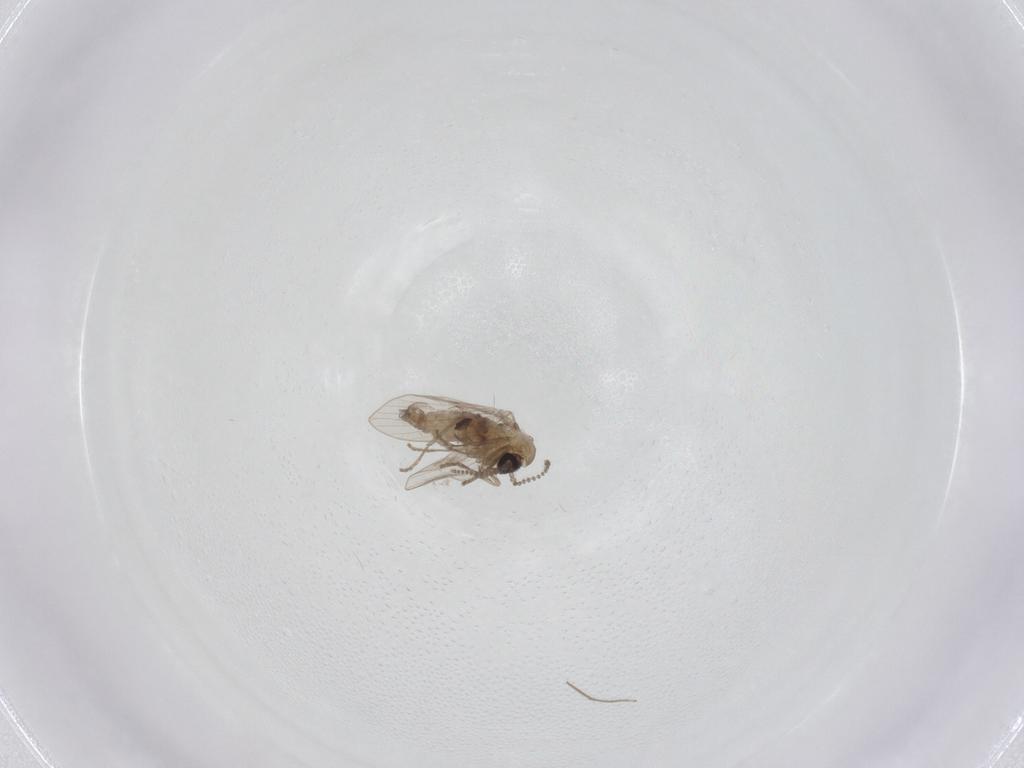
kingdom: Animalia
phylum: Arthropoda
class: Insecta
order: Diptera
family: Psychodidae
